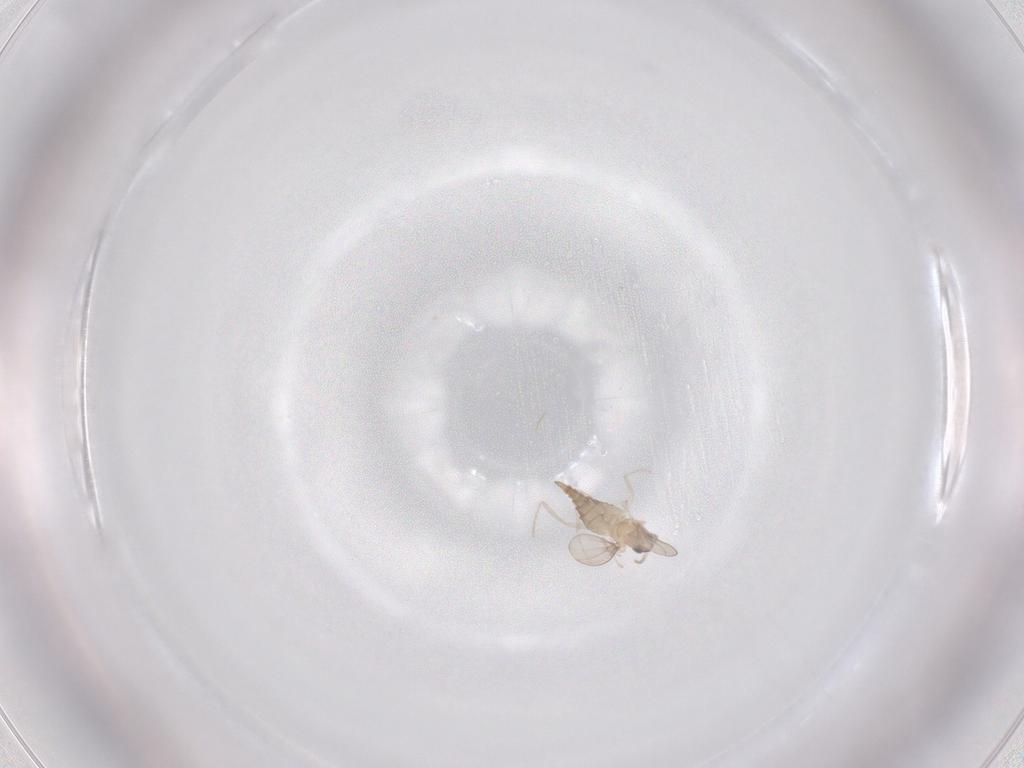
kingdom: Animalia
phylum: Arthropoda
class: Insecta
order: Diptera
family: Cecidomyiidae
